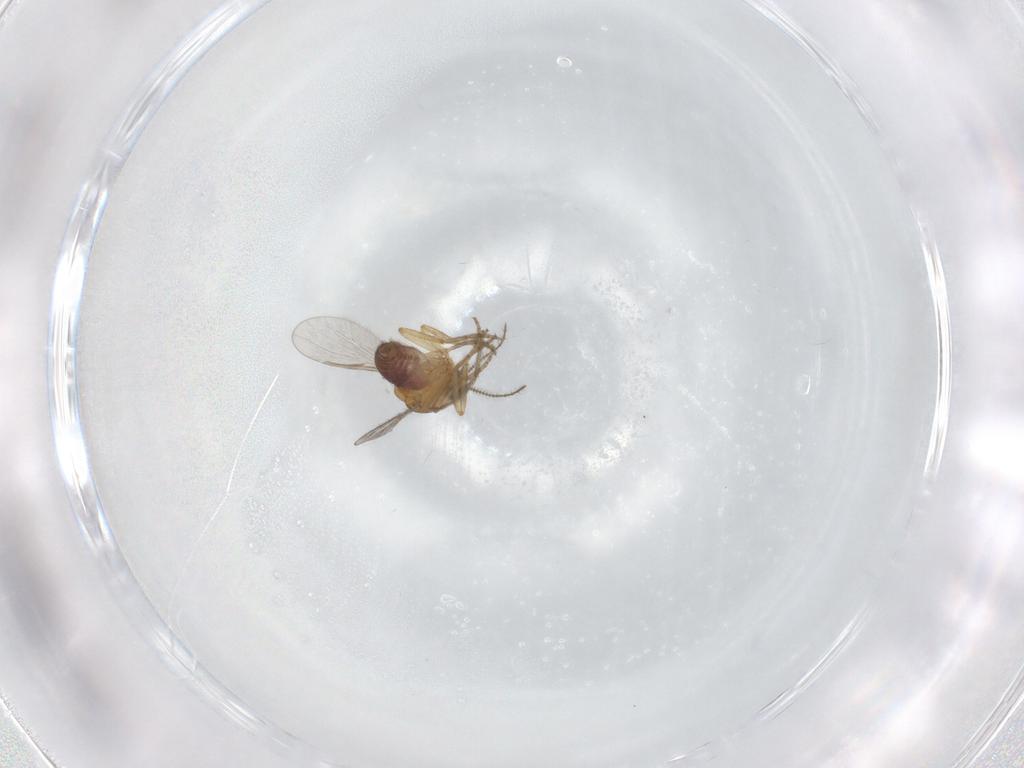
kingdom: Animalia
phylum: Arthropoda
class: Insecta
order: Diptera
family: Ceratopogonidae
